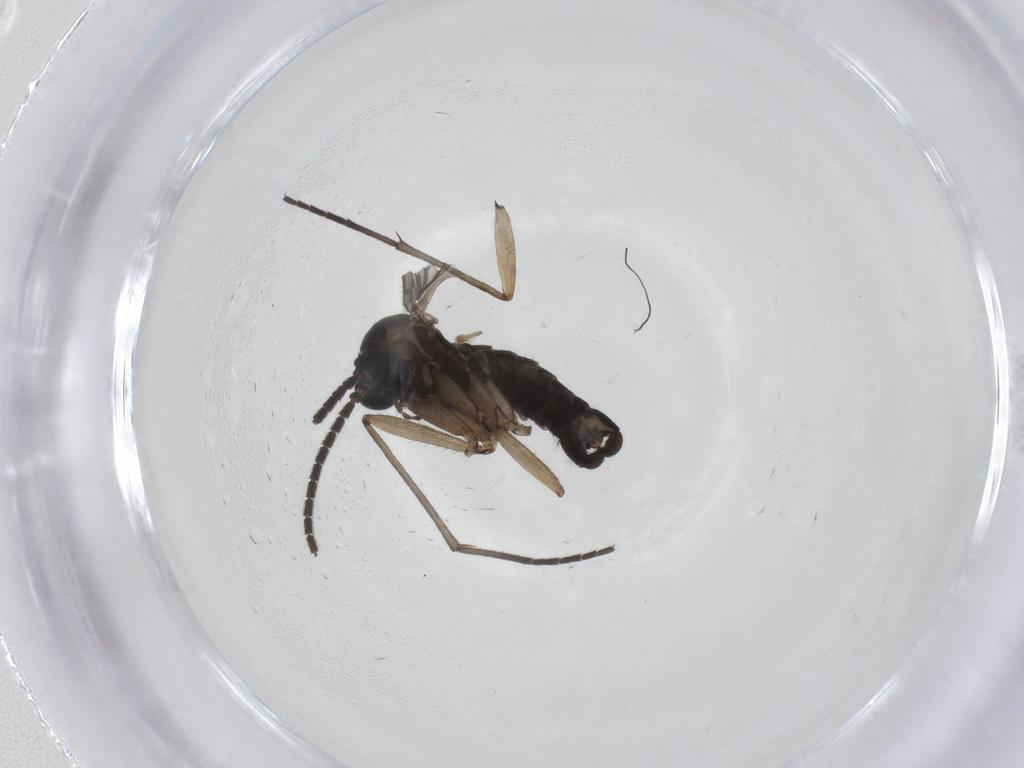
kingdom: Animalia
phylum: Arthropoda
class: Insecta
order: Diptera
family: Sciaridae
